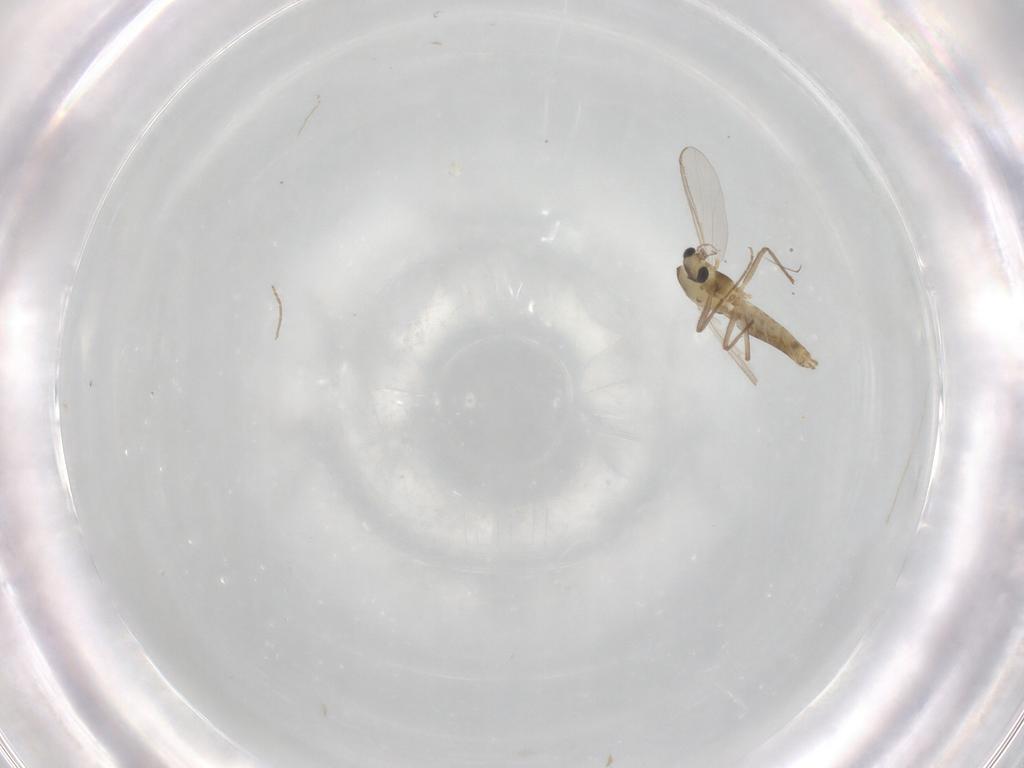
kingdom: Animalia
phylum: Arthropoda
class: Insecta
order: Diptera
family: Chironomidae
